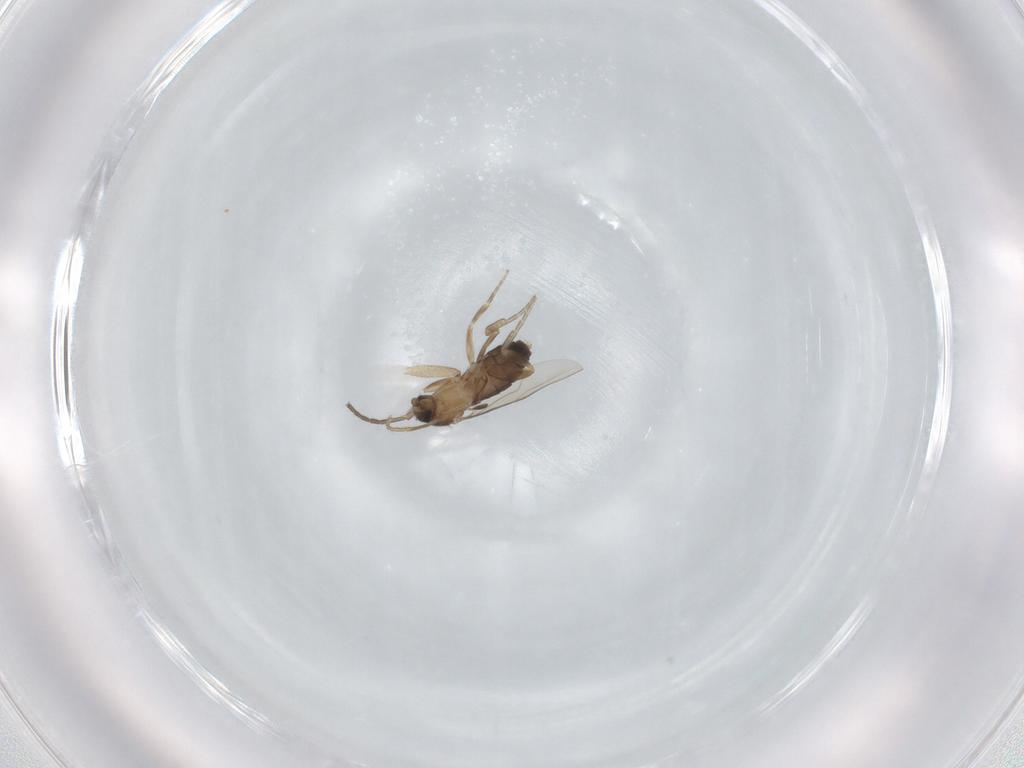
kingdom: Animalia
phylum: Arthropoda
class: Insecta
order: Diptera
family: Phoridae
